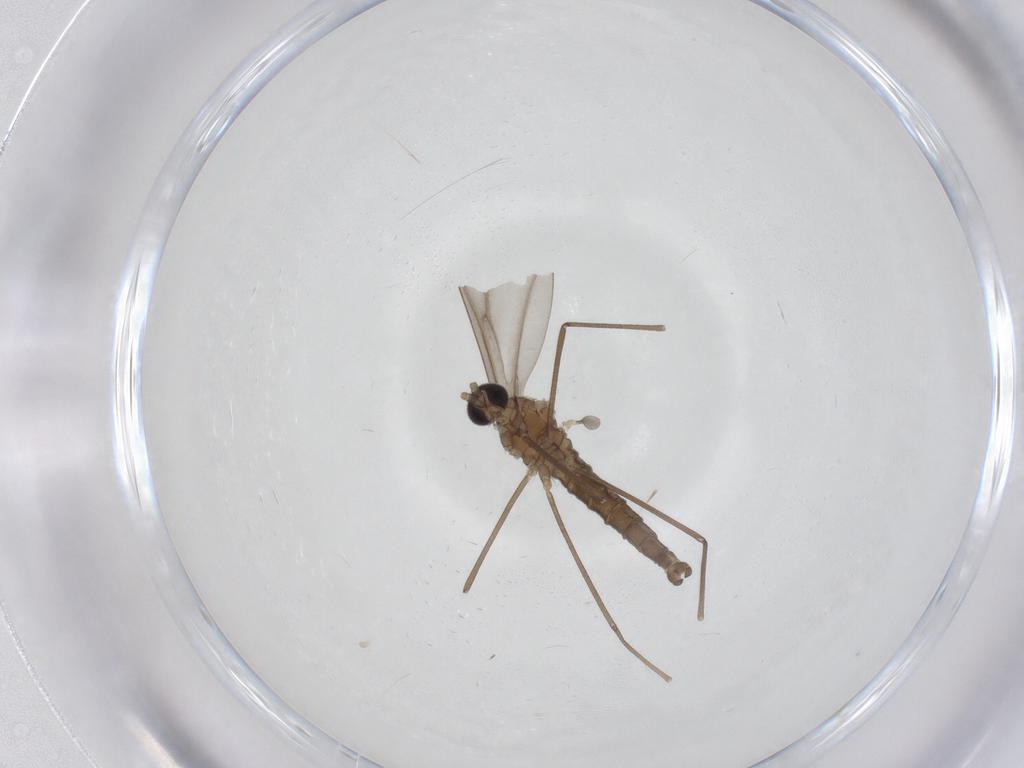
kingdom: Animalia
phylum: Arthropoda
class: Insecta
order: Diptera
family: Cecidomyiidae
